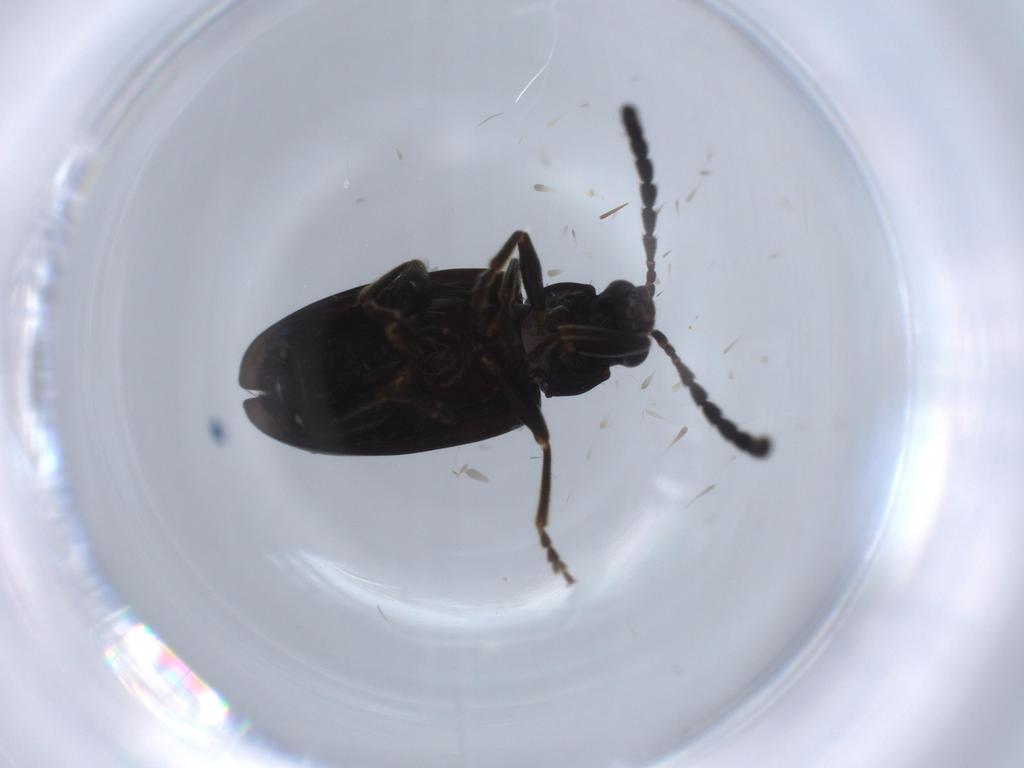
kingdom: Animalia
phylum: Arthropoda
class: Insecta
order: Coleoptera
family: Chrysomelidae
